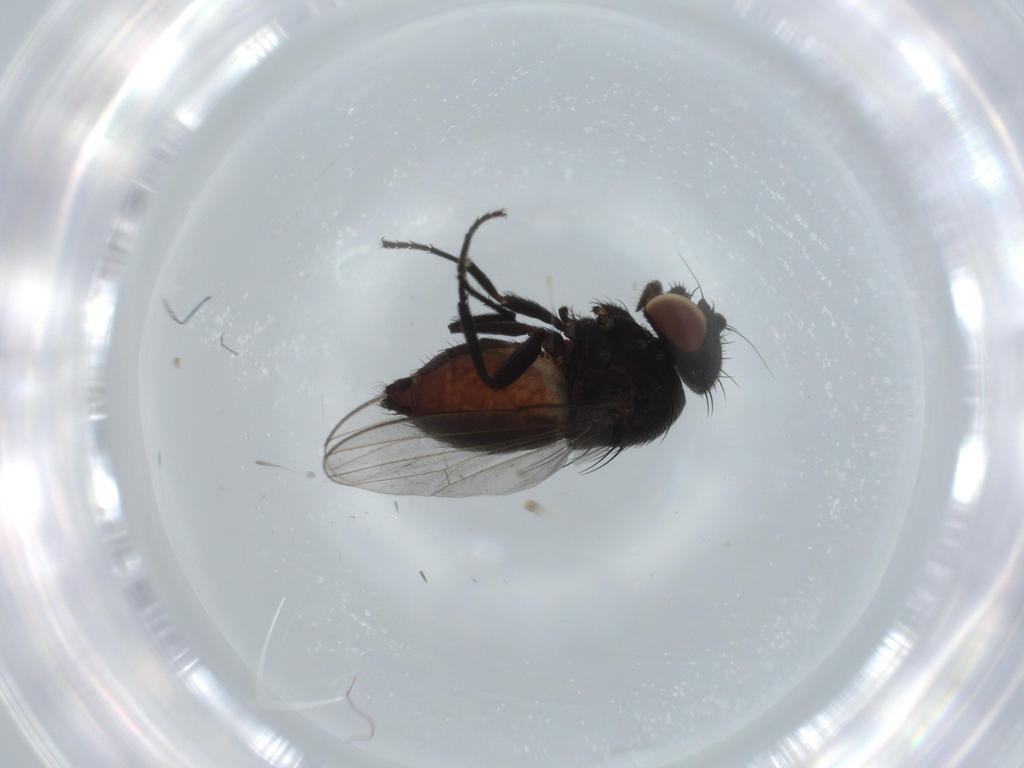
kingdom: Animalia
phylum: Arthropoda
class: Insecta
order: Diptera
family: Milichiidae
